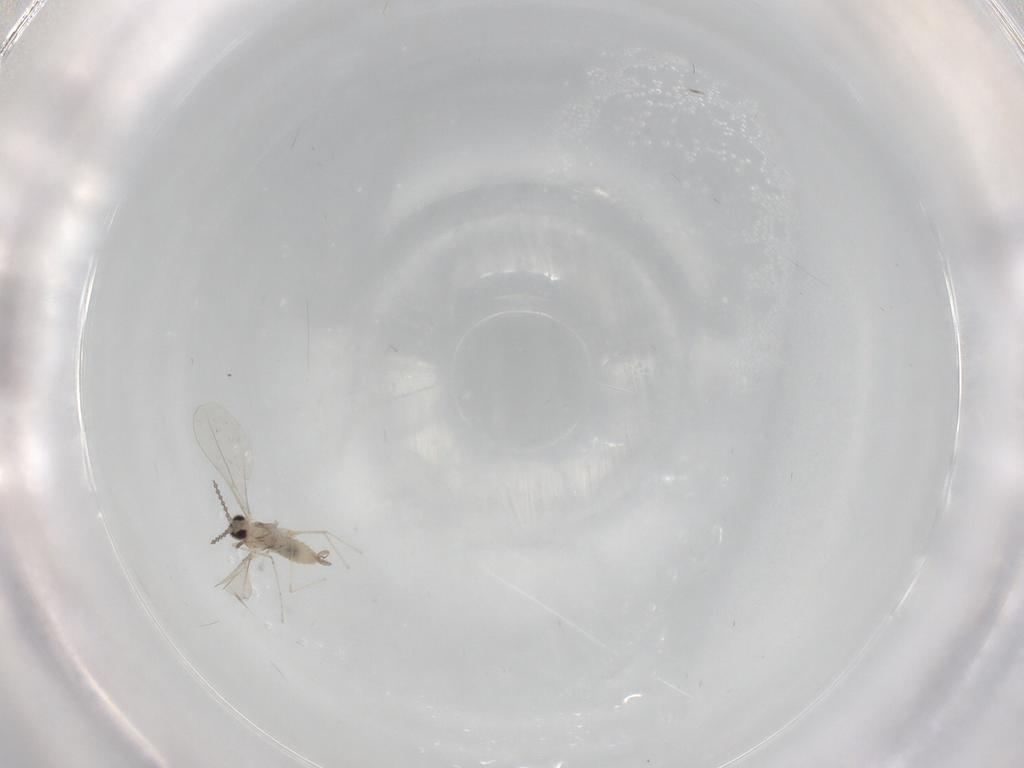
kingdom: Animalia
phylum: Arthropoda
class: Insecta
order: Diptera
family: Cecidomyiidae
